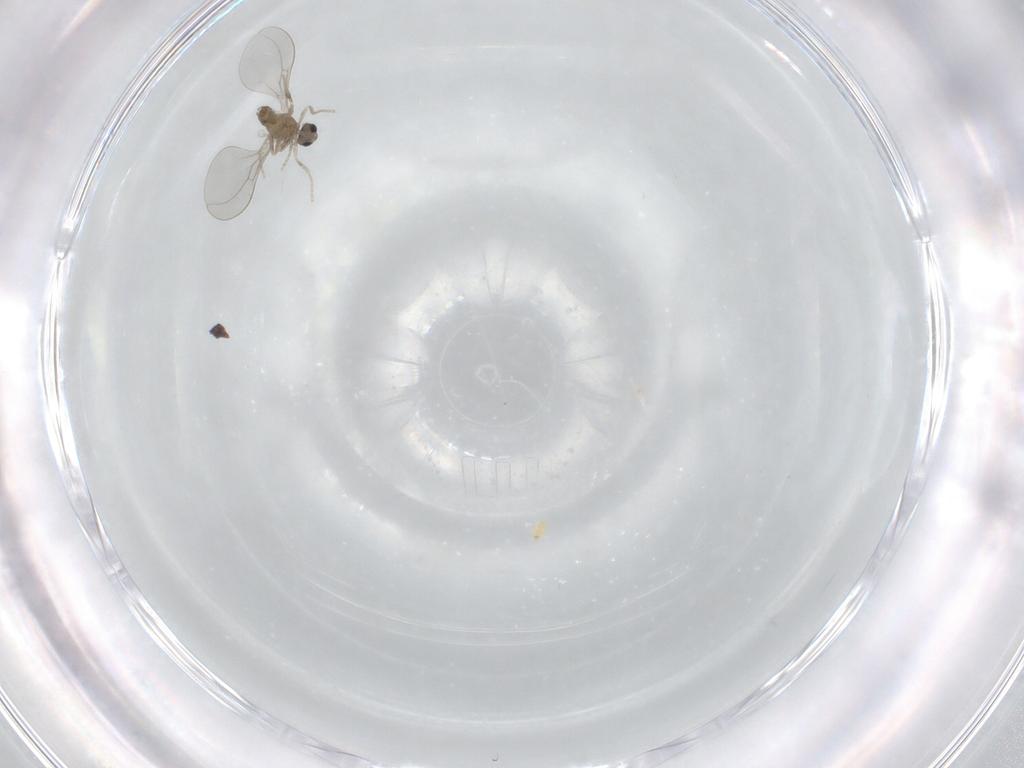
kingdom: Animalia
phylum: Arthropoda
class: Insecta
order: Diptera
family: Cecidomyiidae
